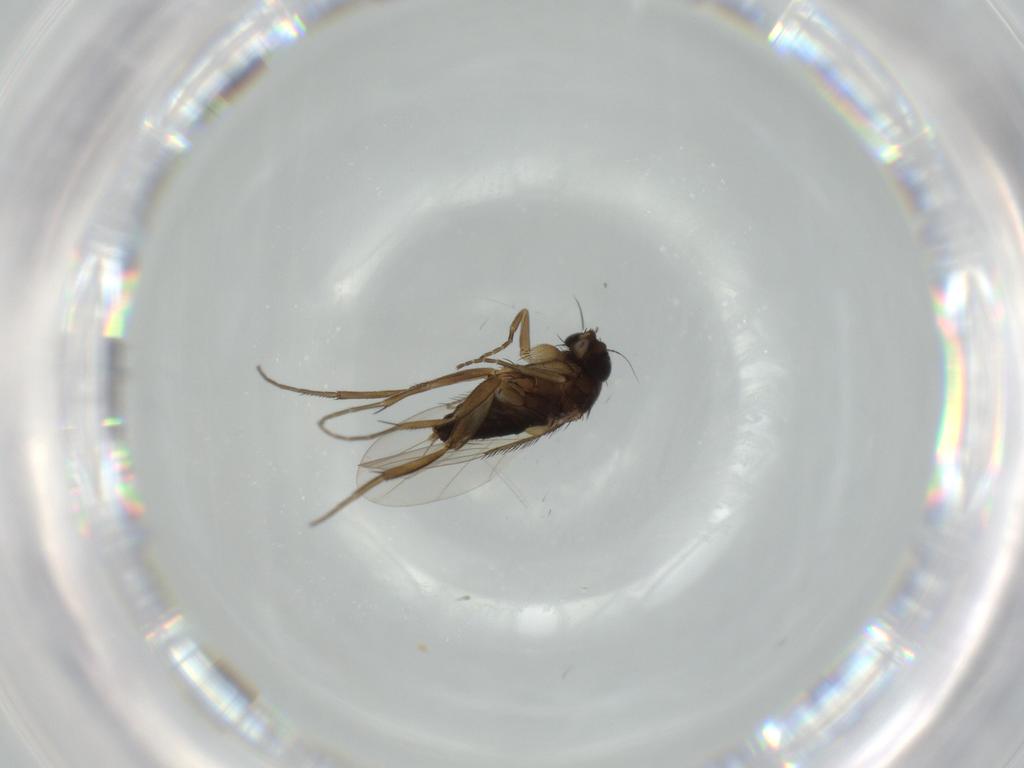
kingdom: Animalia
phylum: Arthropoda
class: Insecta
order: Diptera
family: Phoridae
